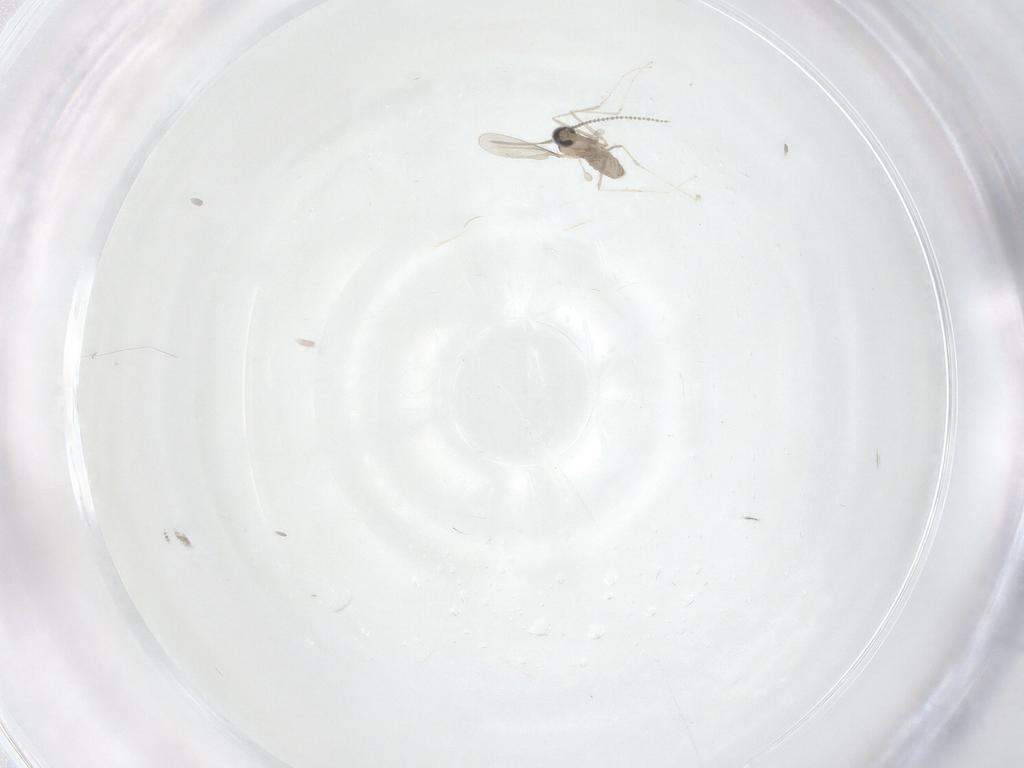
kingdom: Animalia
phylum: Arthropoda
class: Insecta
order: Diptera
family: Cecidomyiidae
